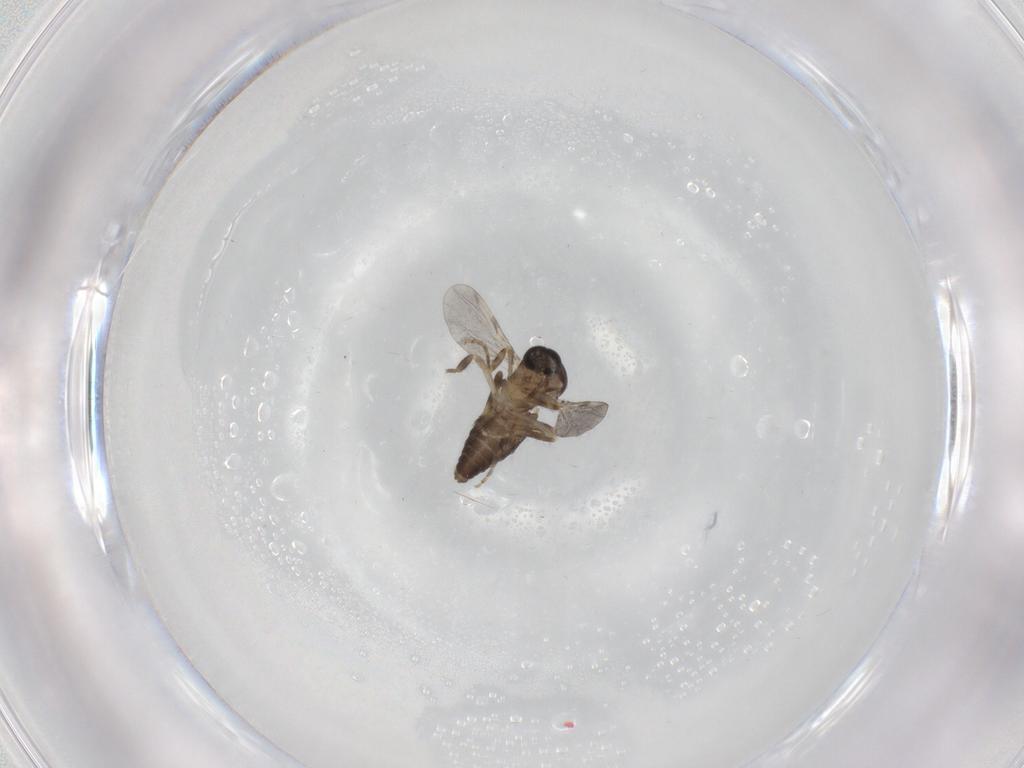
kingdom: Animalia
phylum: Arthropoda
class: Insecta
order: Diptera
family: Ceratopogonidae
